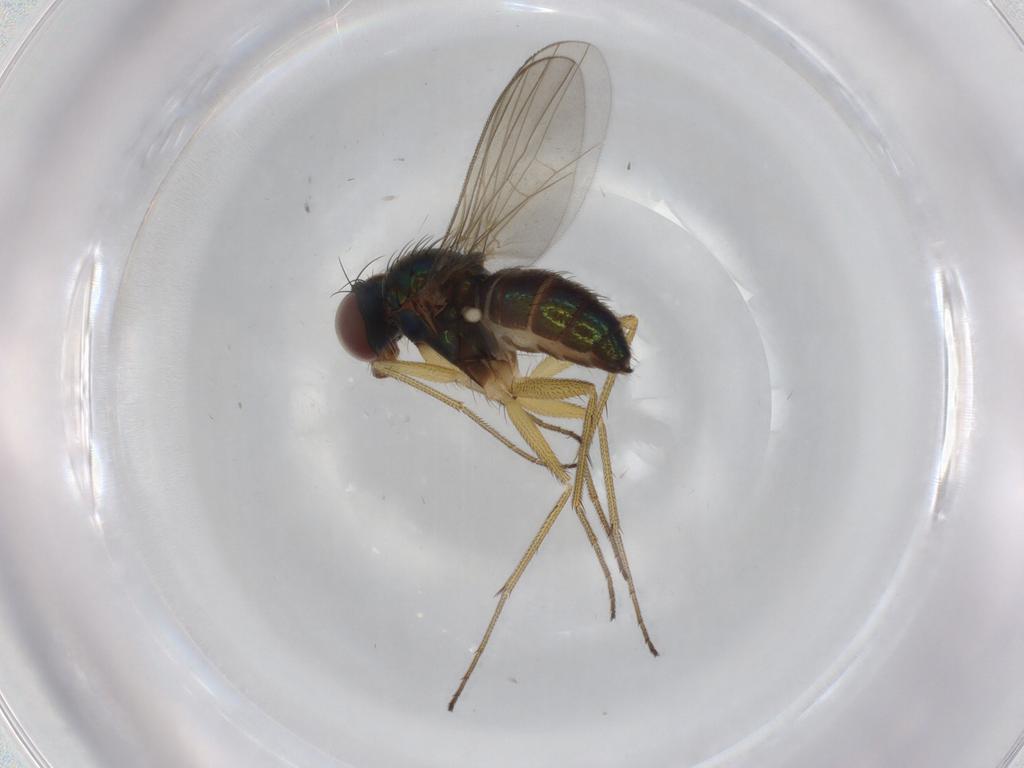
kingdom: Animalia
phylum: Arthropoda
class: Insecta
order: Diptera
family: Dolichopodidae
